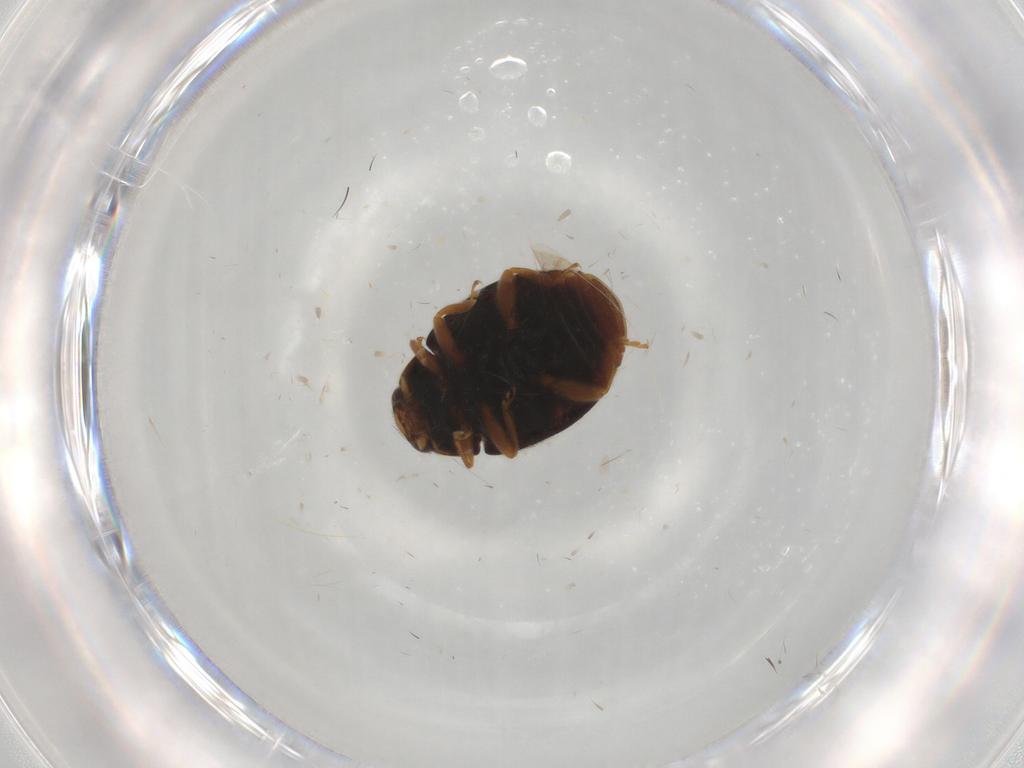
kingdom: Animalia
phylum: Arthropoda
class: Insecta
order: Coleoptera
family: Coccinellidae
